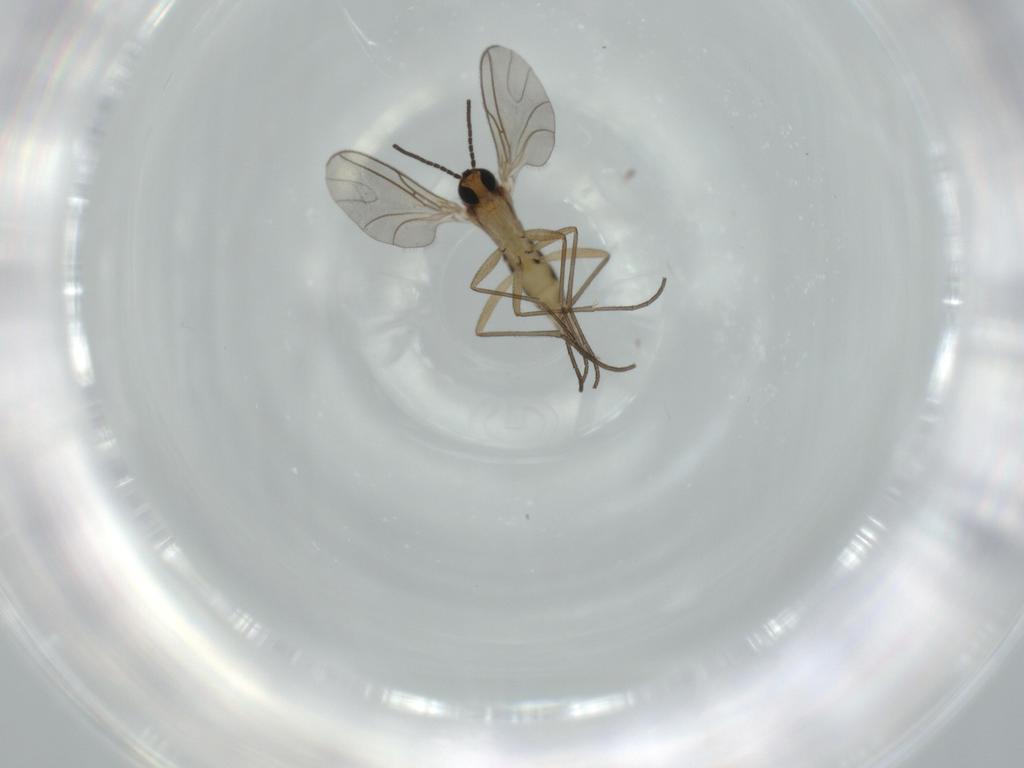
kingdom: Animalia
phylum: Arthropoda
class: Insecta
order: Diptera
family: Sciaridae
